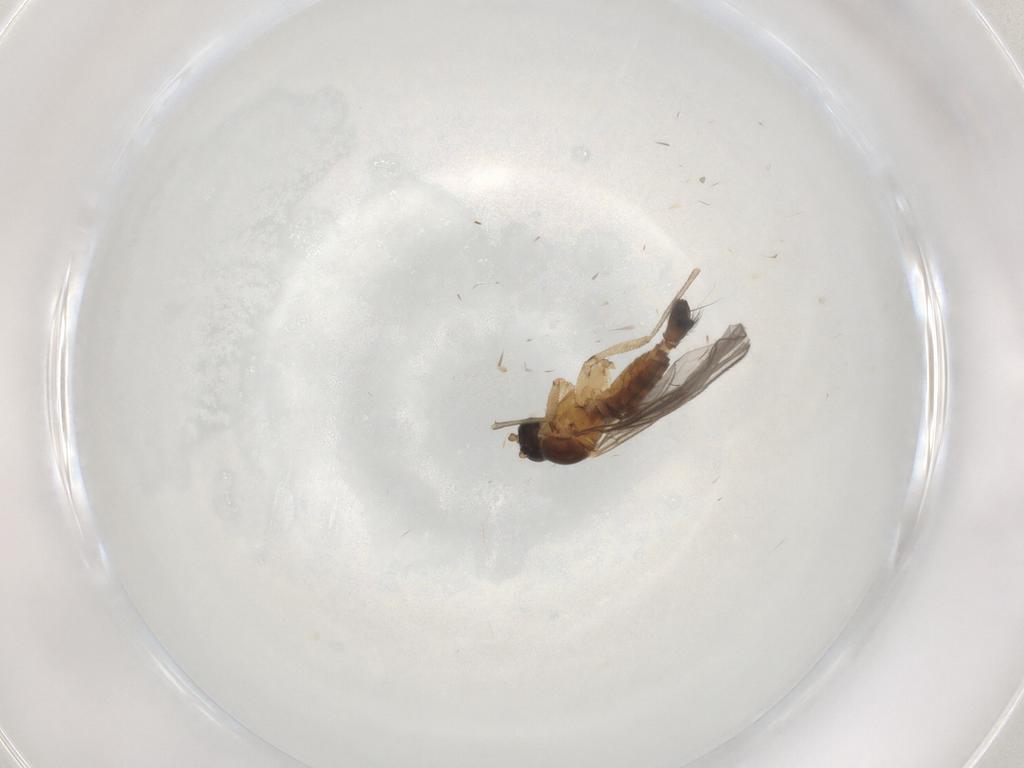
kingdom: Animalia
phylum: Arthropoda
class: Insecta
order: Diptera
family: Sciaridae
